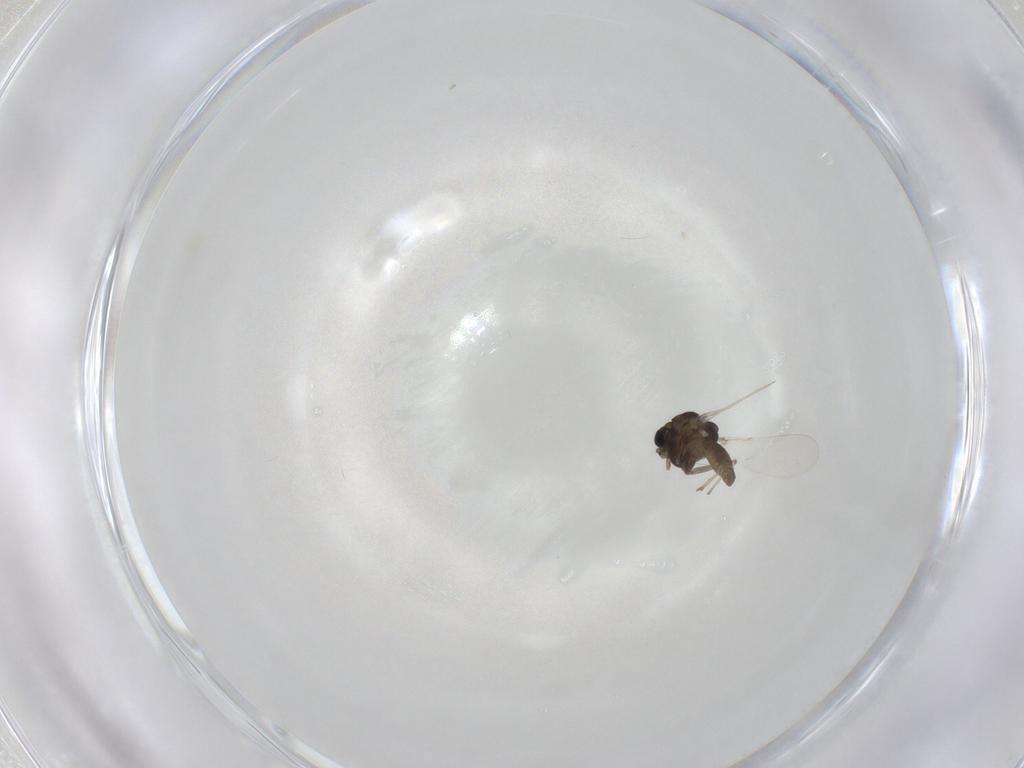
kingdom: Animalia
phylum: Arthropoda
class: Insecta
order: Diptera
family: Chironomidae
